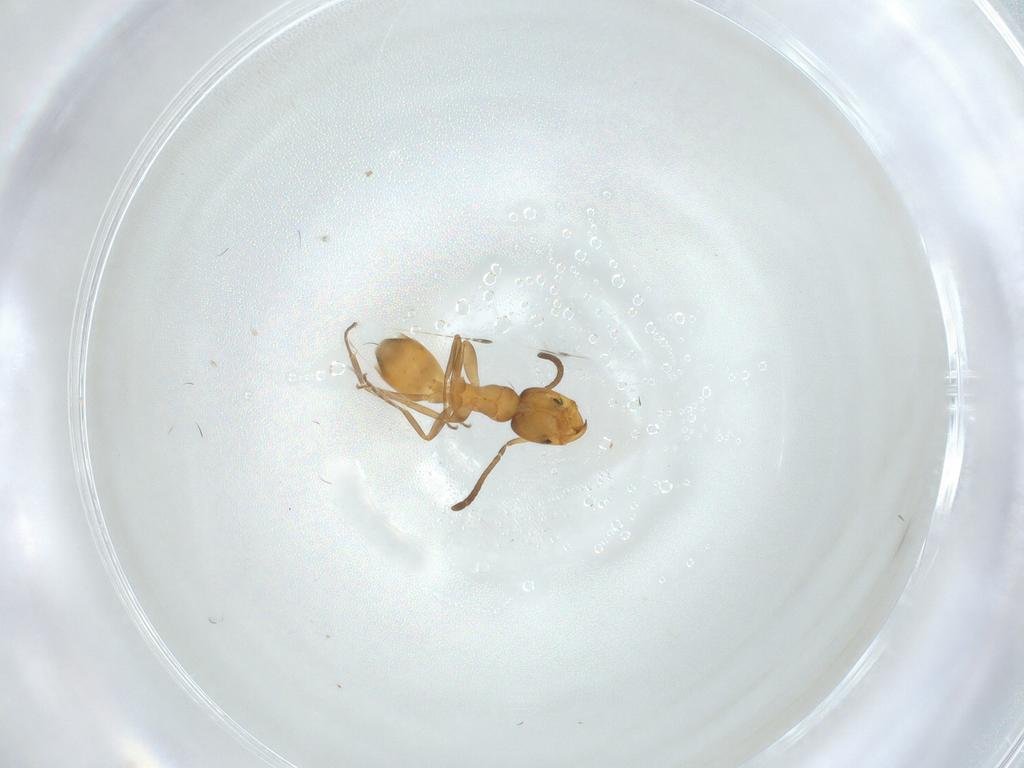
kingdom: Animalia
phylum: Arthropoda
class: Insecta
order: Hymenoptera
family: Formicidae
